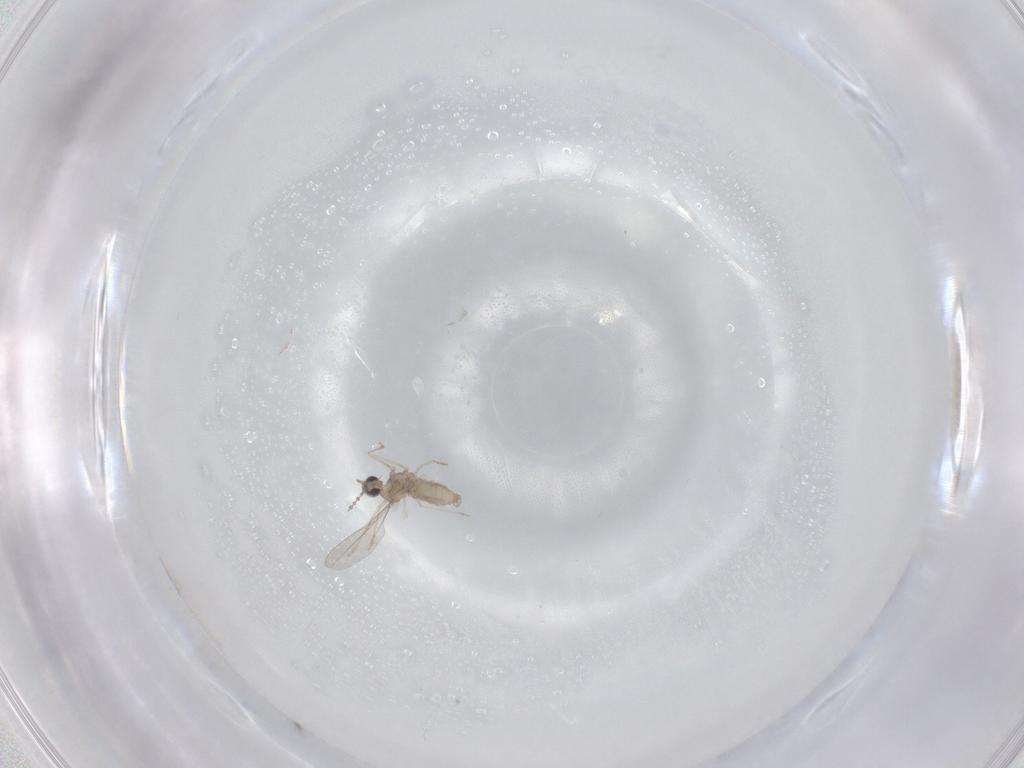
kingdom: Animalia
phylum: Arthropoda
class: Insecta
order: Diptera
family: Cecidomyiidae
